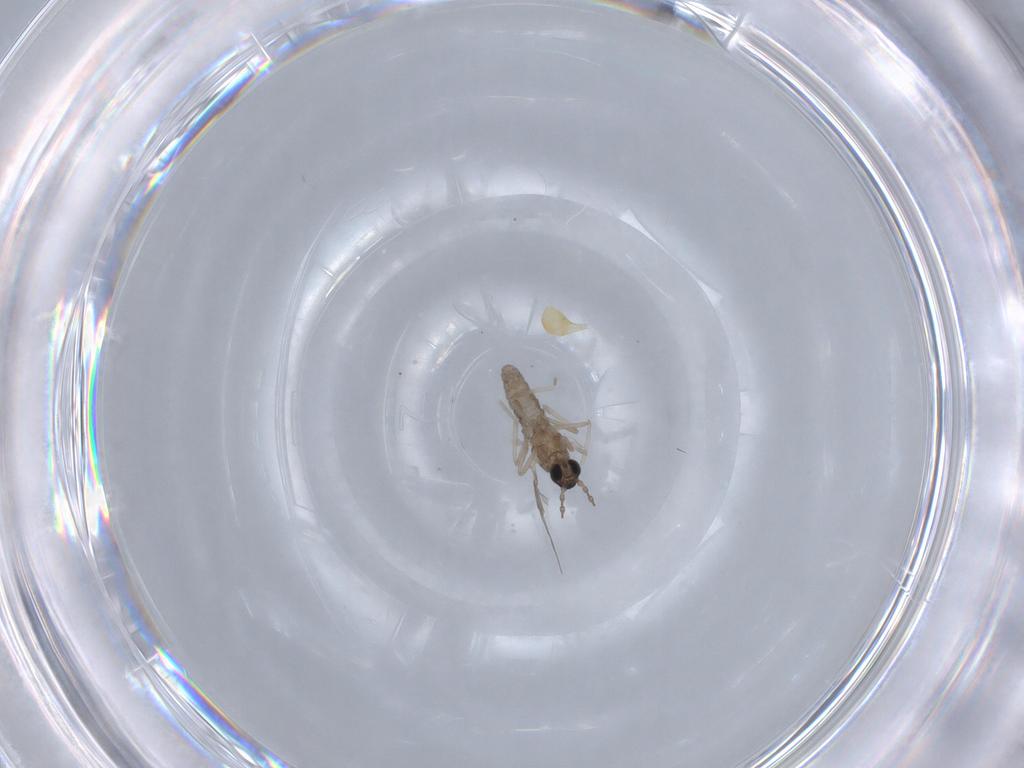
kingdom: Animalia
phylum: Arthropoda
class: Insecta
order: Diptera
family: Cecidomyiidae
